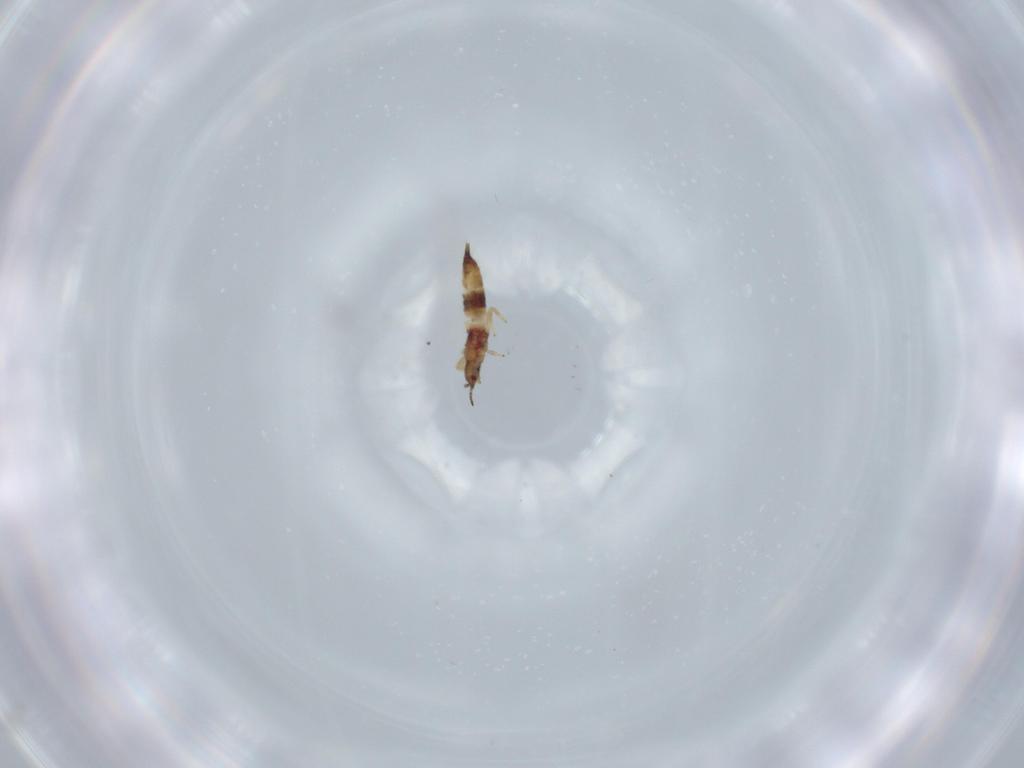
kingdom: Animalia
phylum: Arthropoda
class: Insecta
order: Thysanoptera
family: Phlaeothripidae
